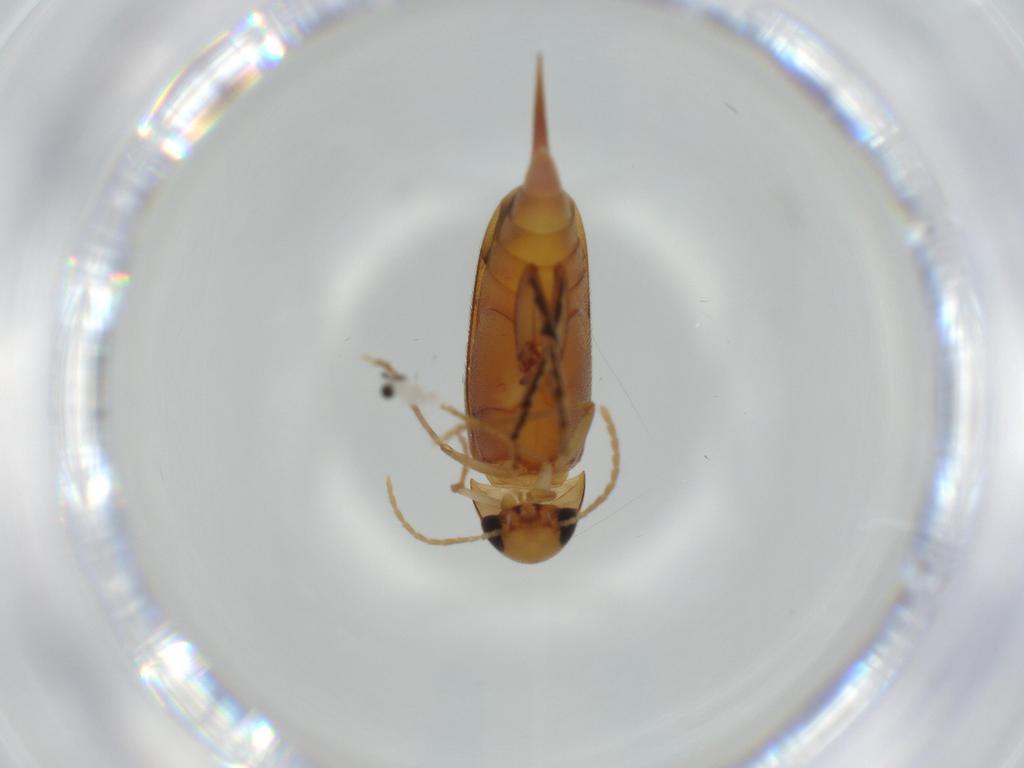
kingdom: Animalia
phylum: Arthropoda
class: Insecta
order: Coleoptera
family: Mordellidae
